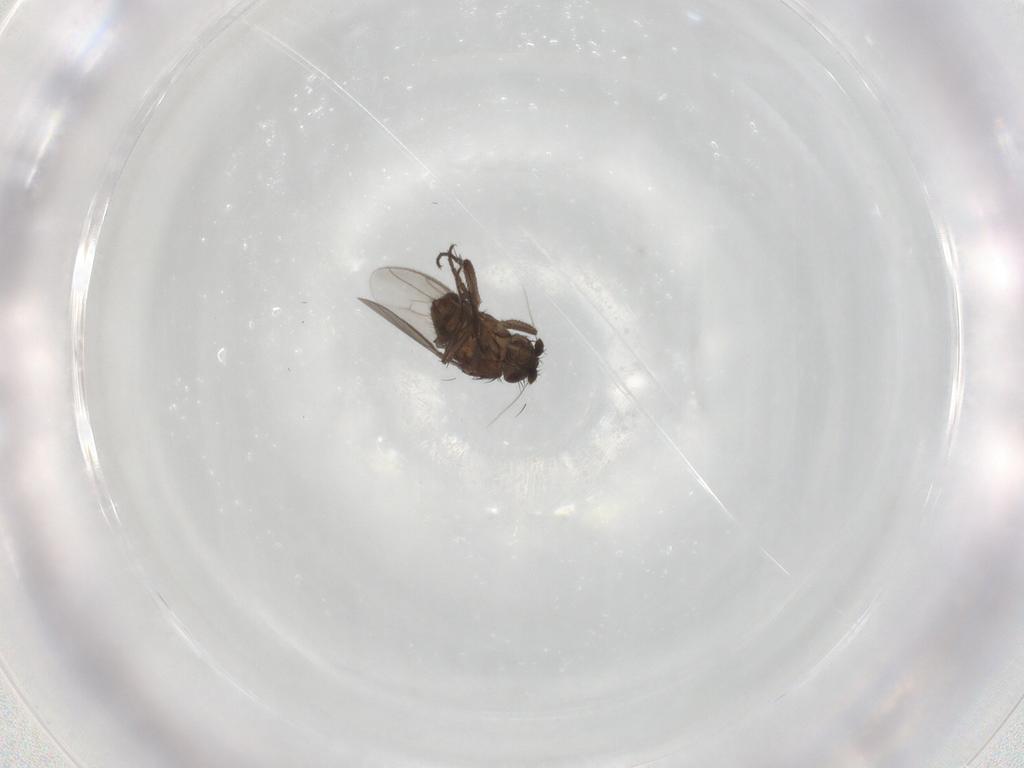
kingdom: Animalia
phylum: Arthropoda
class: Insecta
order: Diptera
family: Sphaeroceridae
